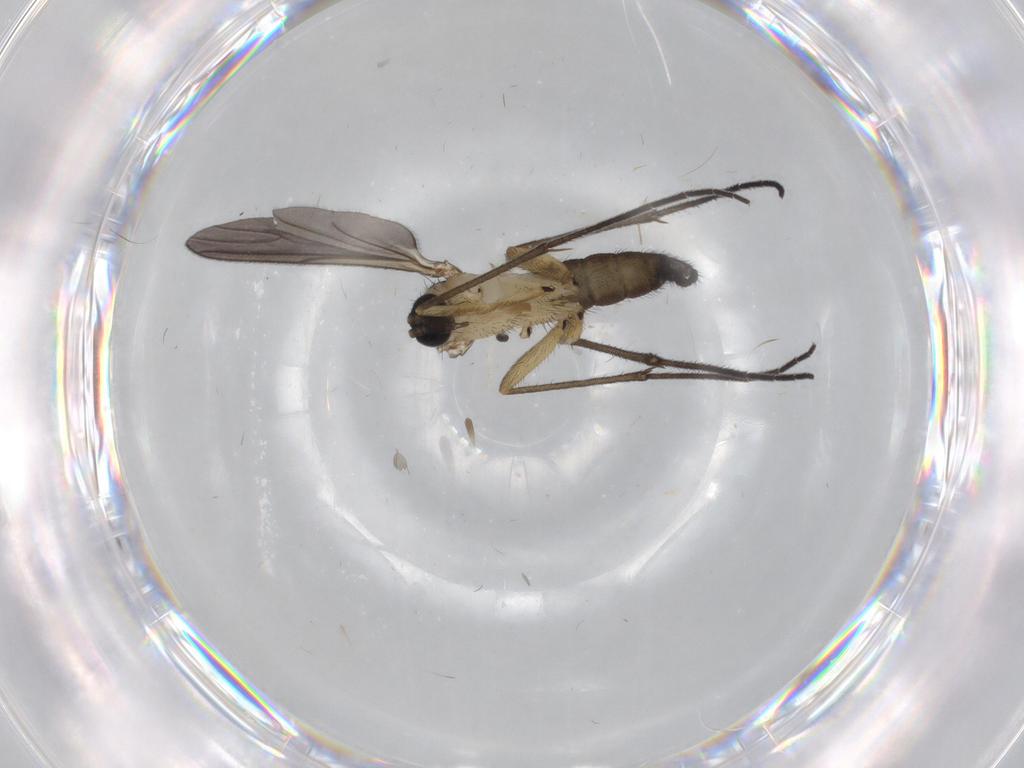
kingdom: Animalia
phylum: Arthropoda
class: Insecta
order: Diptera
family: Sciaridae
